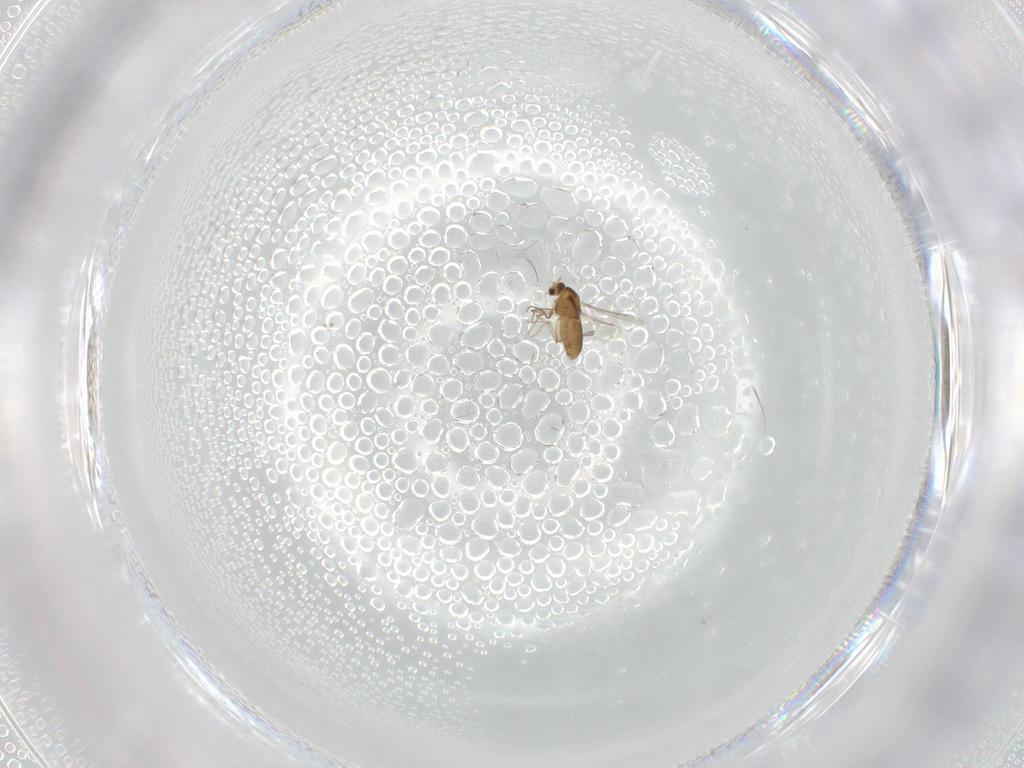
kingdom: Animalia
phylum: Arthropoda
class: Insecta
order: Diptera
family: Chironomidae
